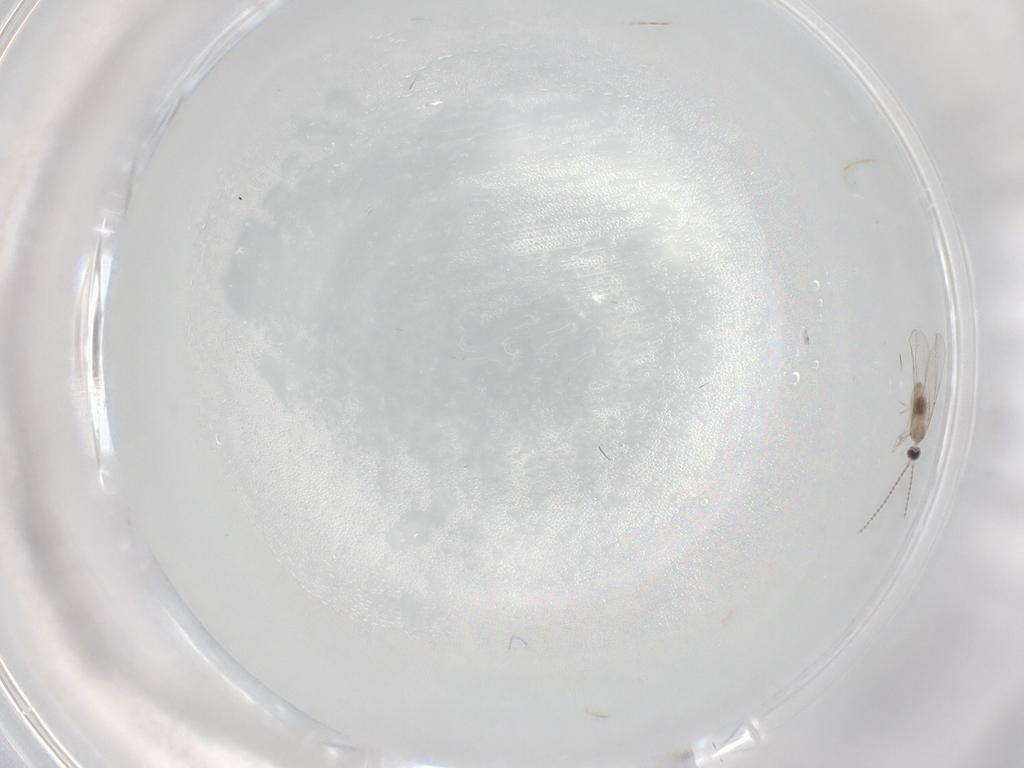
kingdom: Animalia
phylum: Arthropoda
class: Insecta
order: Diptera
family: Cecidomyiidae
